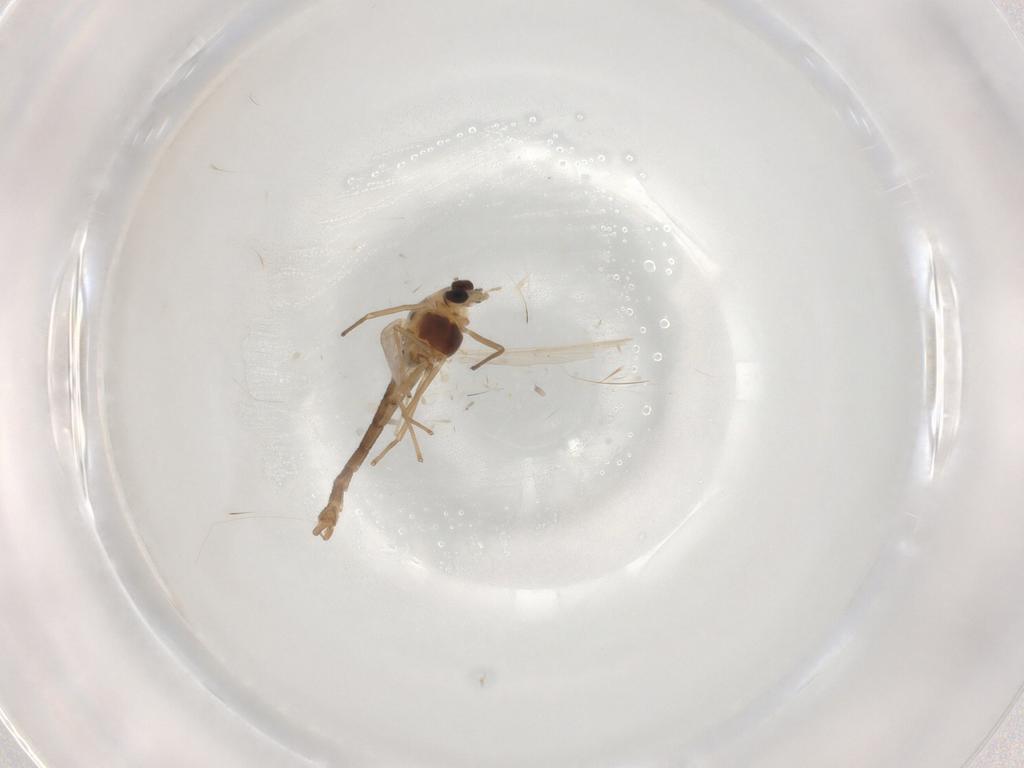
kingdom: Animalia
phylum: Arthropoda
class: Insecta
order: Diptera
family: Chironomidae
